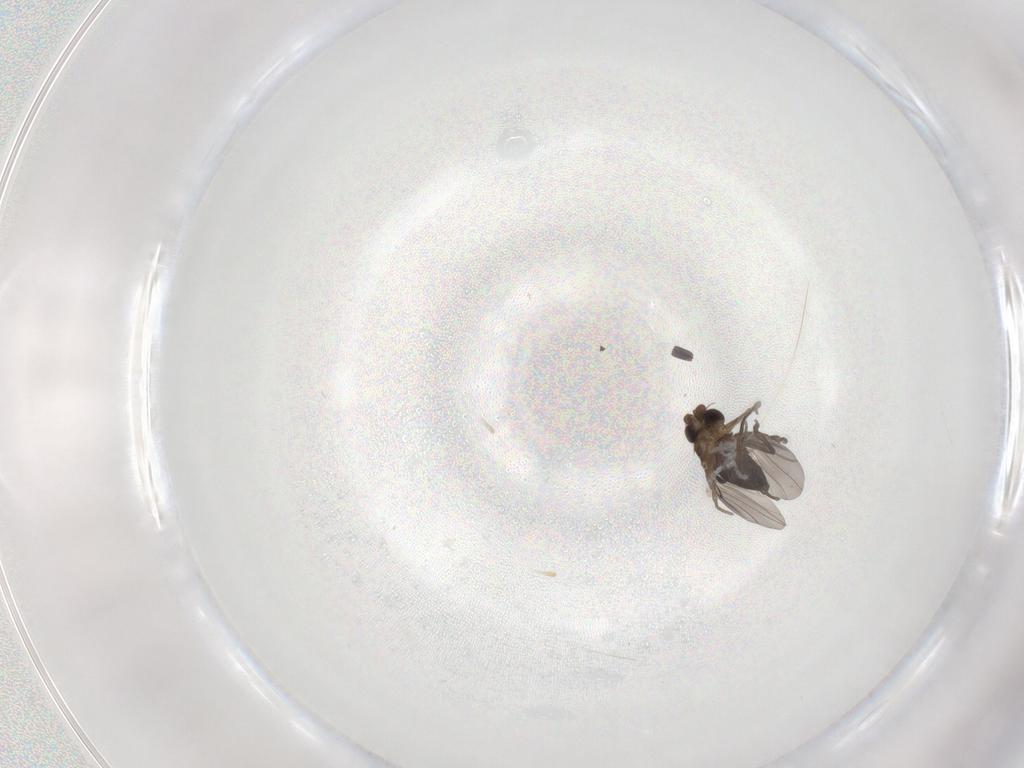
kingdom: Animalia
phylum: Arthropoda
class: Insecta
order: Diptera
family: Phoridae
